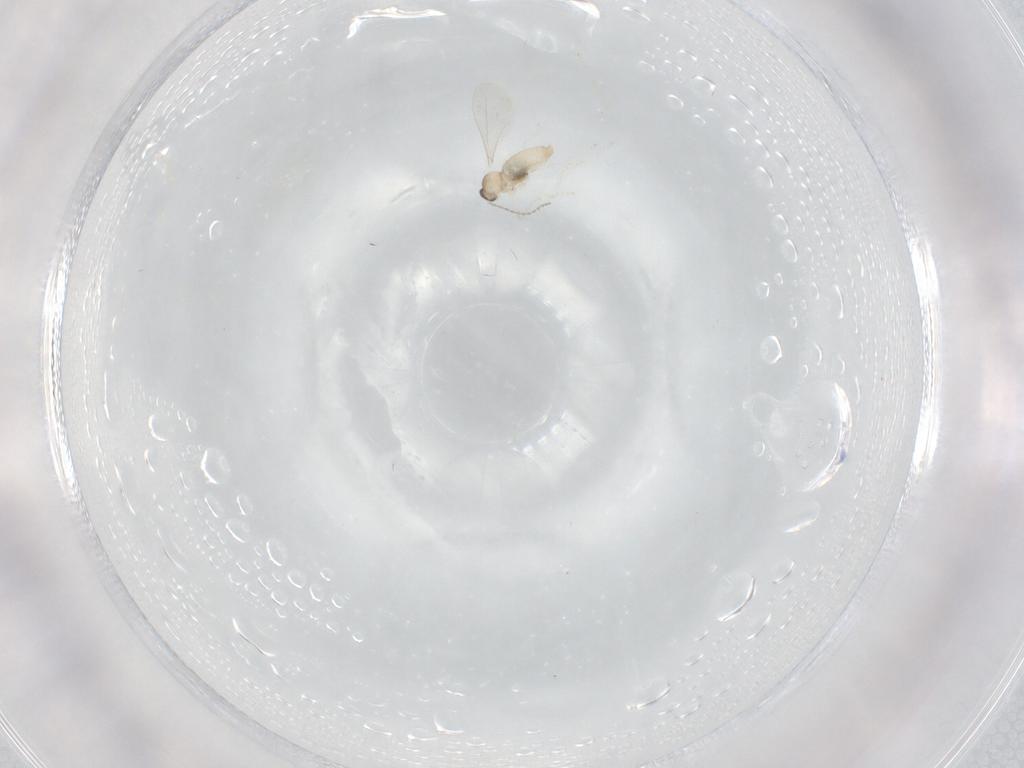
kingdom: Animalia
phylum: Arthropoda
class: Insecta
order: Diptera
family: Cecidomyiidae
